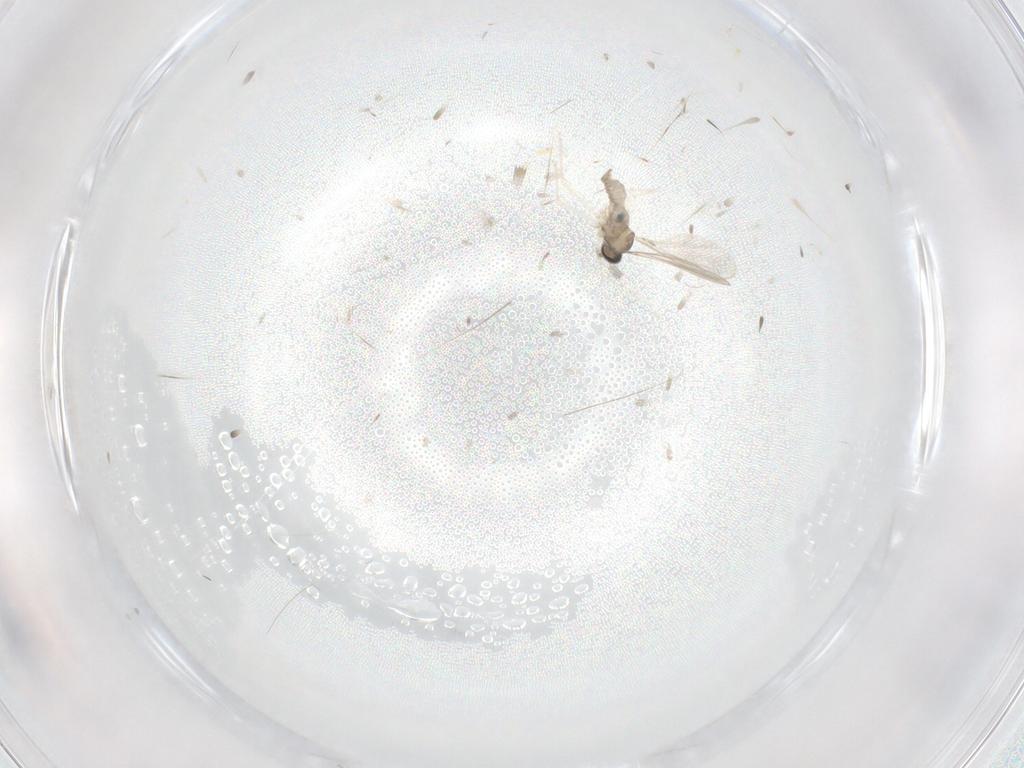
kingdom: Animalia
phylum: Arthropoda
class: Insecta
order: Diptera
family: Cecidomyiidae
